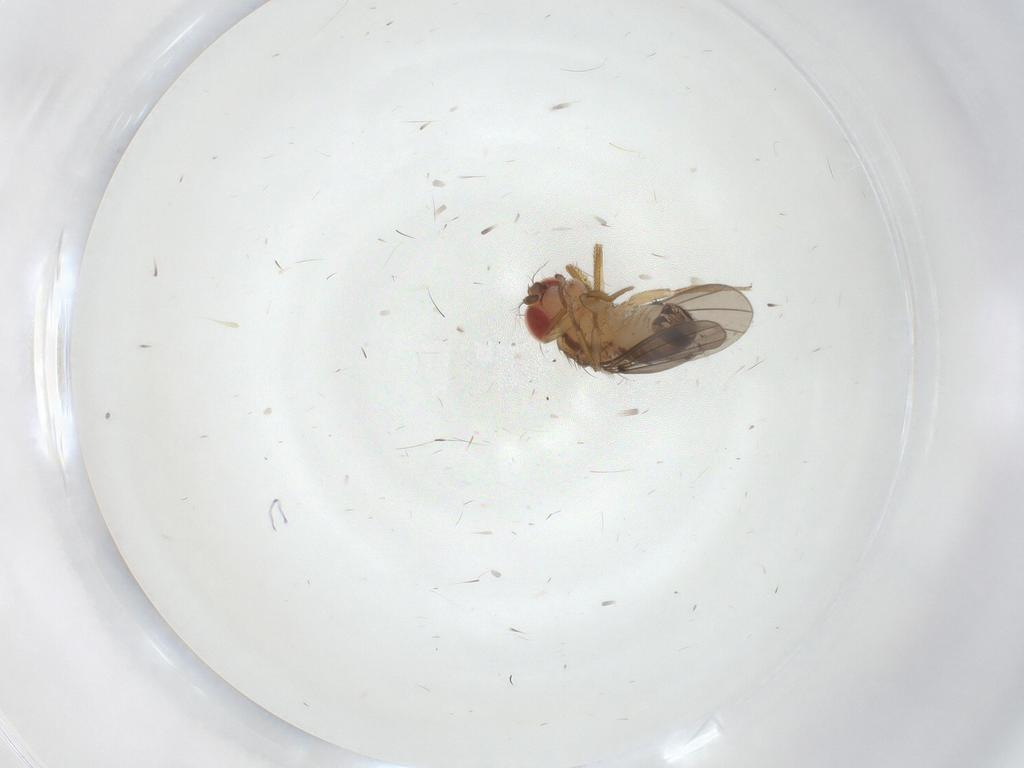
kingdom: Animalia
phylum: Arthropoda
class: Insecta
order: Diptera
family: Drosophilidae
